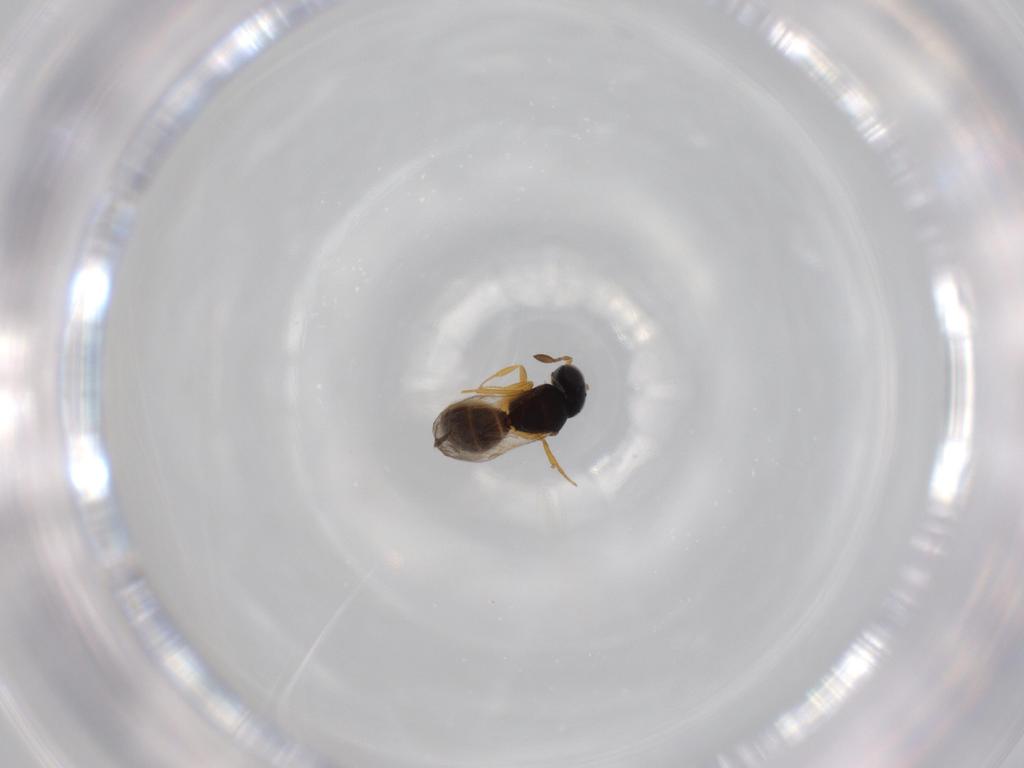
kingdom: Animalia
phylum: Arthropoda
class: Insecta
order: Hymenoptera
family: Scelionidae
